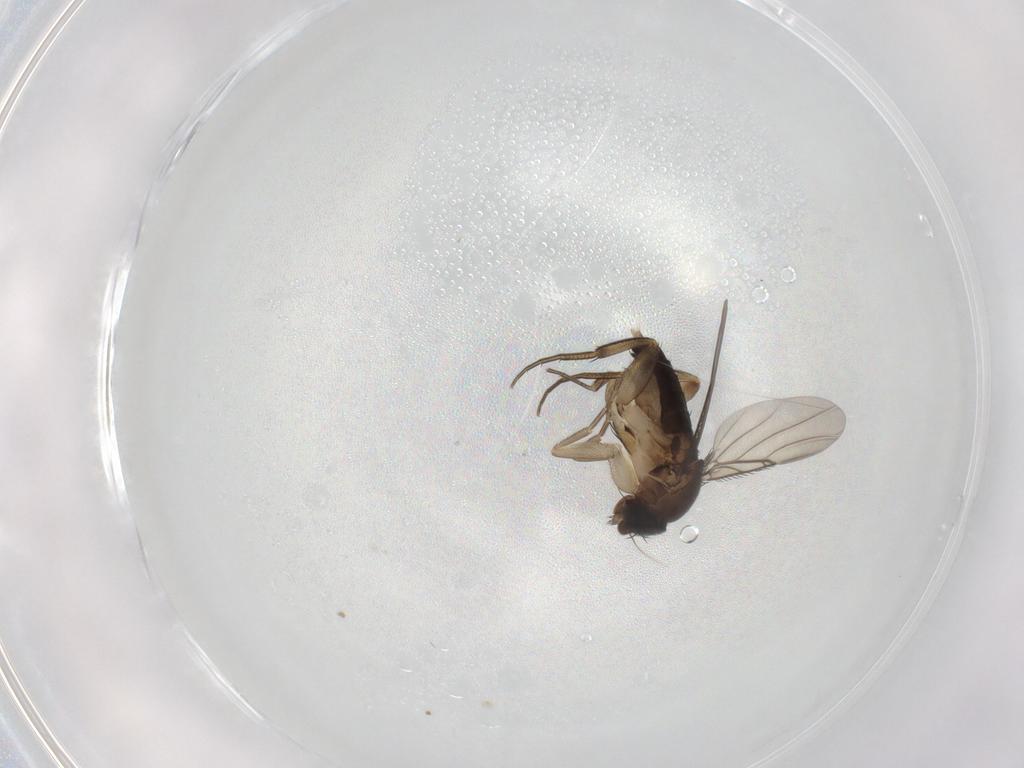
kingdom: Animalia
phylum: Arthropoda
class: Insecta
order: Diptera
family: Phoridae
